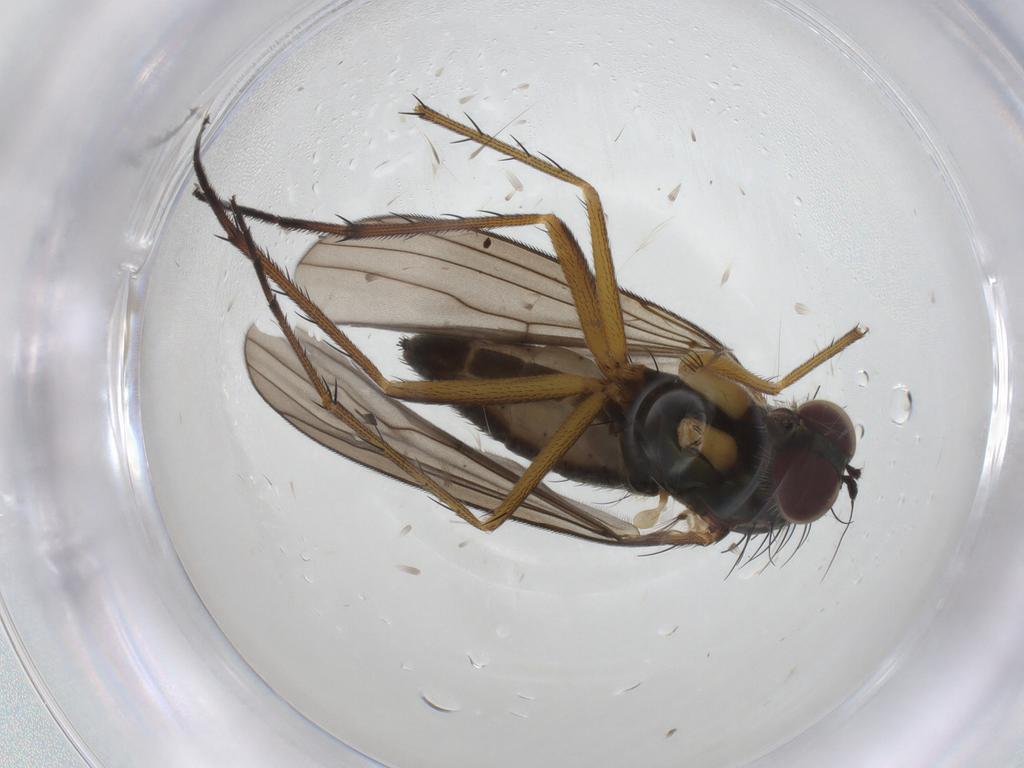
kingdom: Animalia
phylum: Arthropoda
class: Insecta
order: Diptera
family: Dolichopodidae
